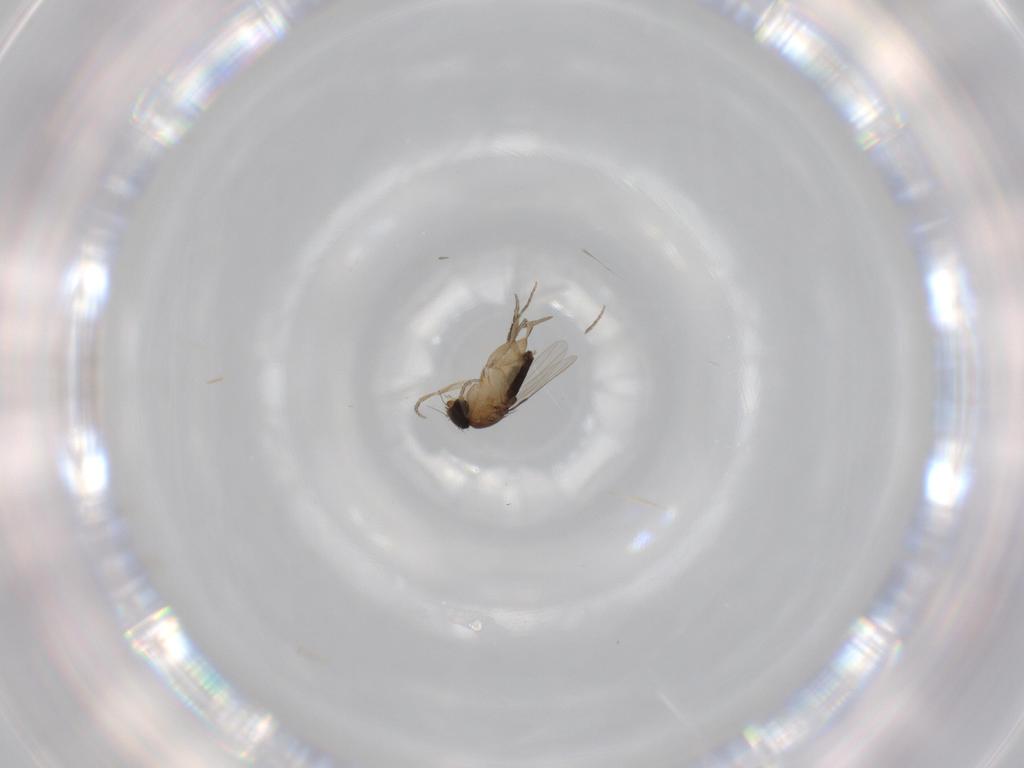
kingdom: Animalia
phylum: Arthropoda
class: Insecta
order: Diptera
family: Phoridae
